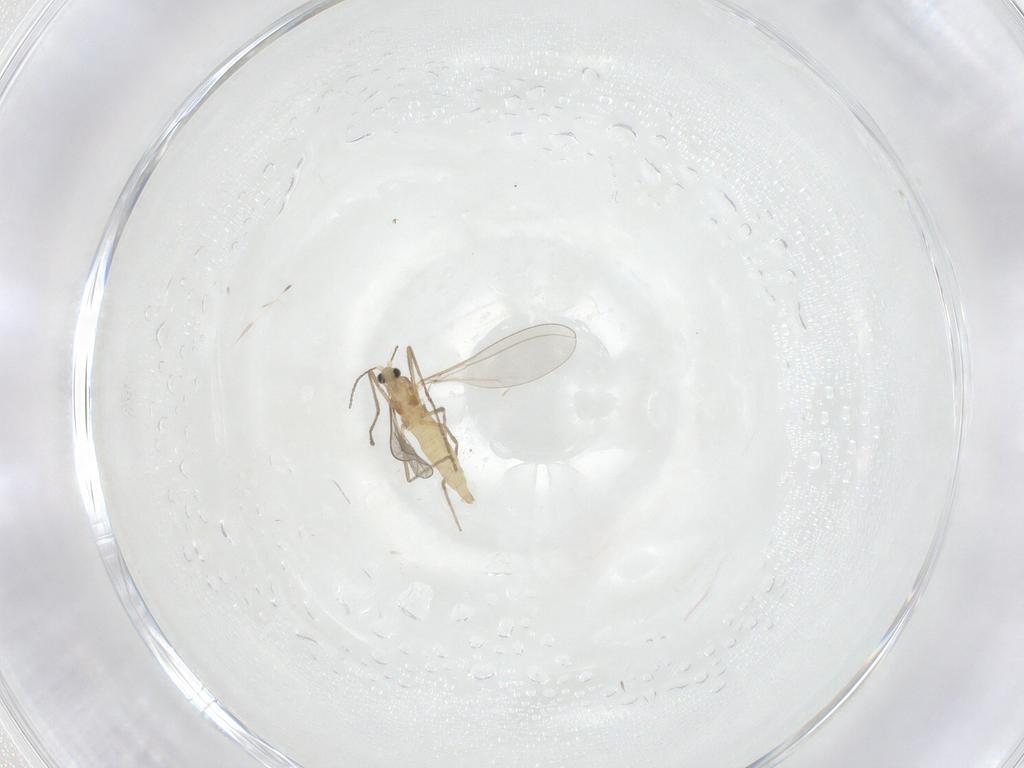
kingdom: Animalia
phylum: Arthropoda
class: Insecta
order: Diptera
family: Cecidomyiidae
